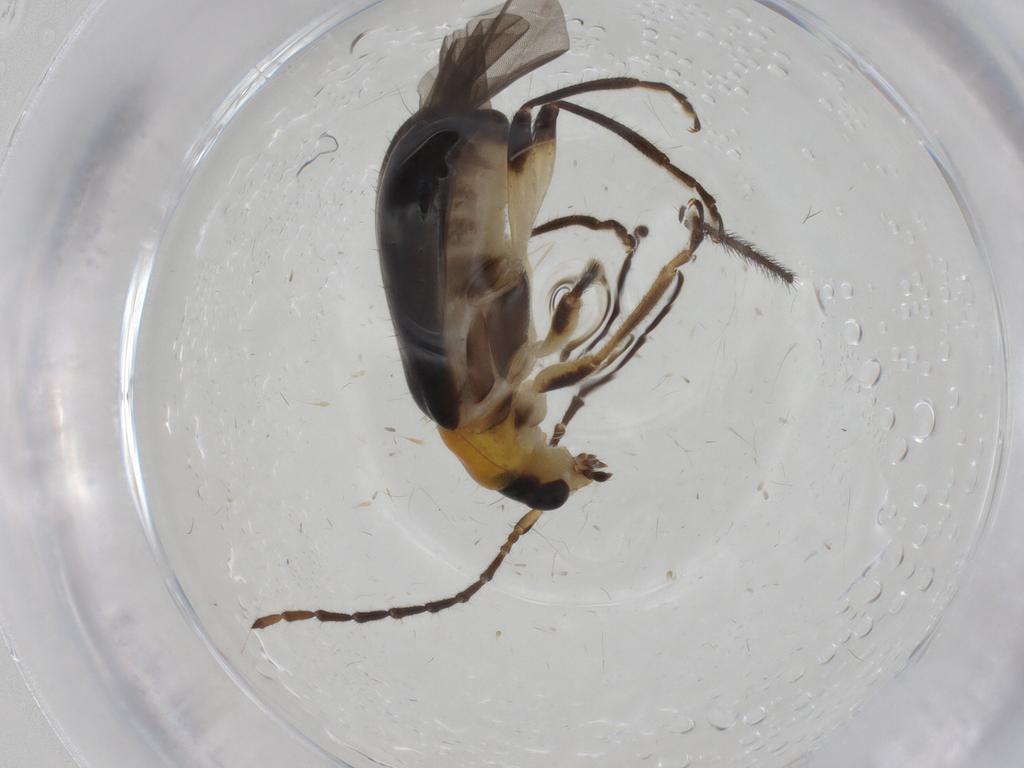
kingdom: Animalia
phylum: Arthropoda
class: Insecta
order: Coleoptera
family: Chrysomelidae
